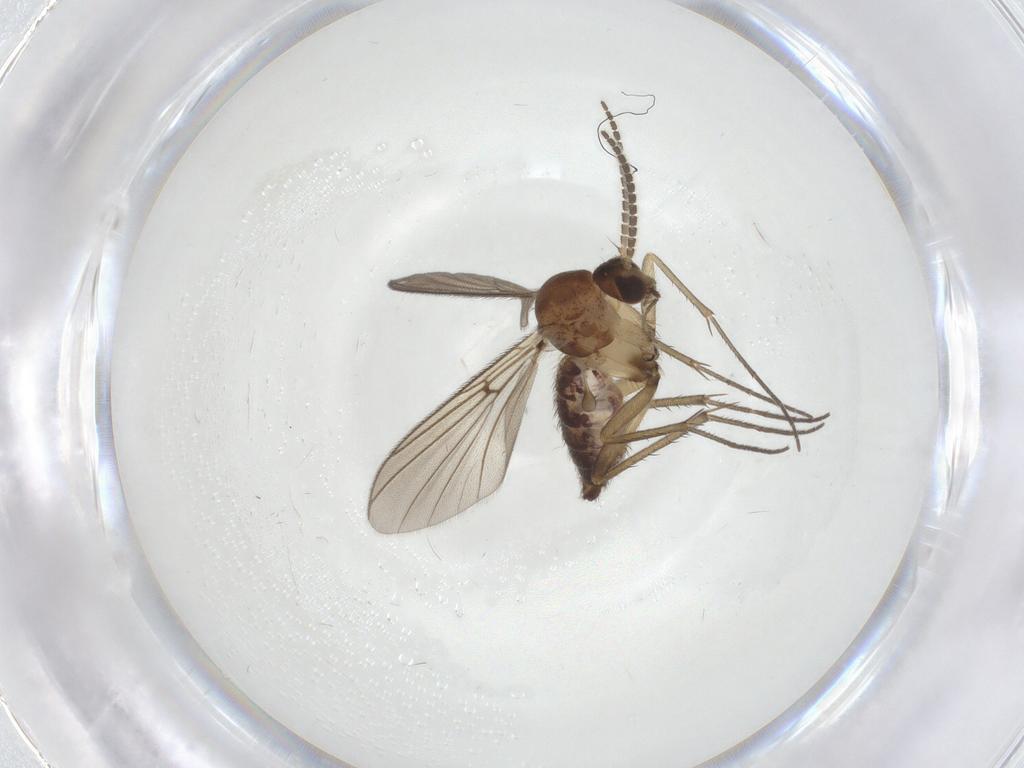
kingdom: Animalia
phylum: Arthropoda
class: Insecta
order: Diptera
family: Mycetophilidae
